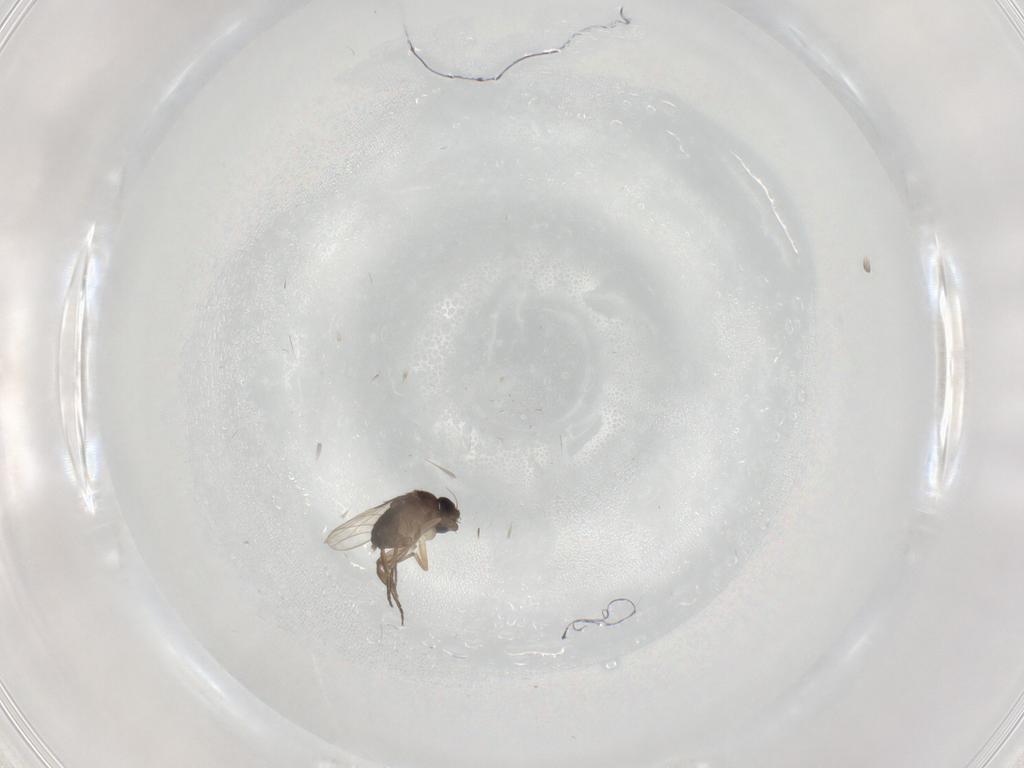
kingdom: Animalia
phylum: Arthropoda
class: Insecta
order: Diptera
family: Phoridae
